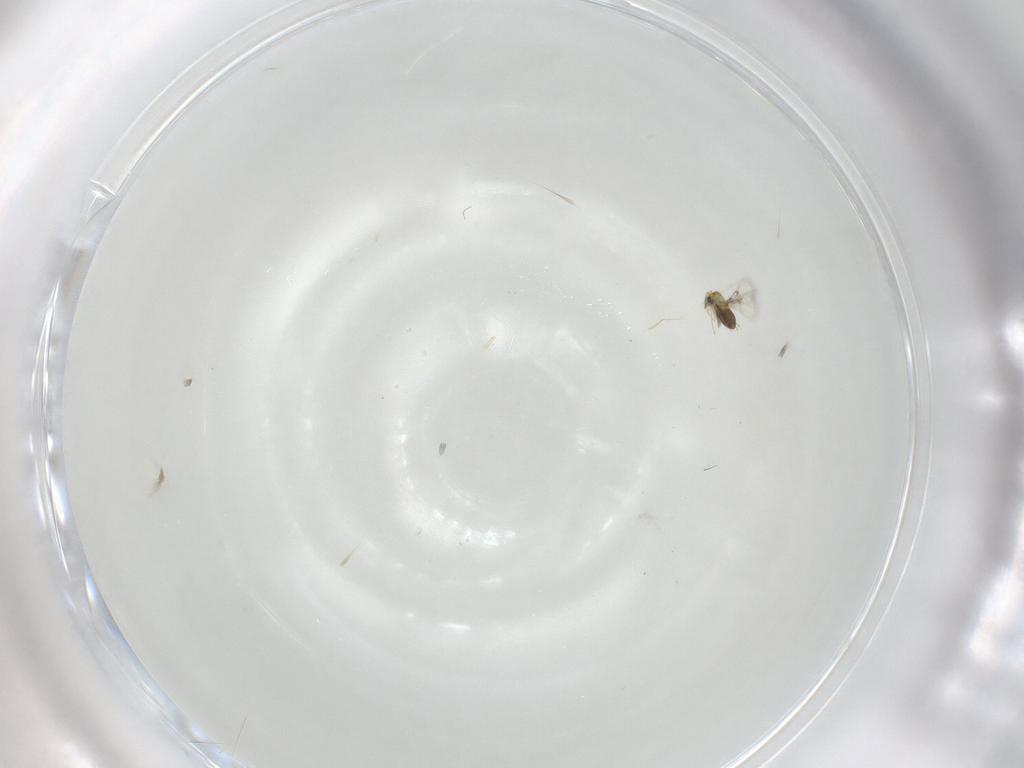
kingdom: Animalia
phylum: Arthropoda
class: Insecta
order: Hymenoptera
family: Trichogrammatidae
